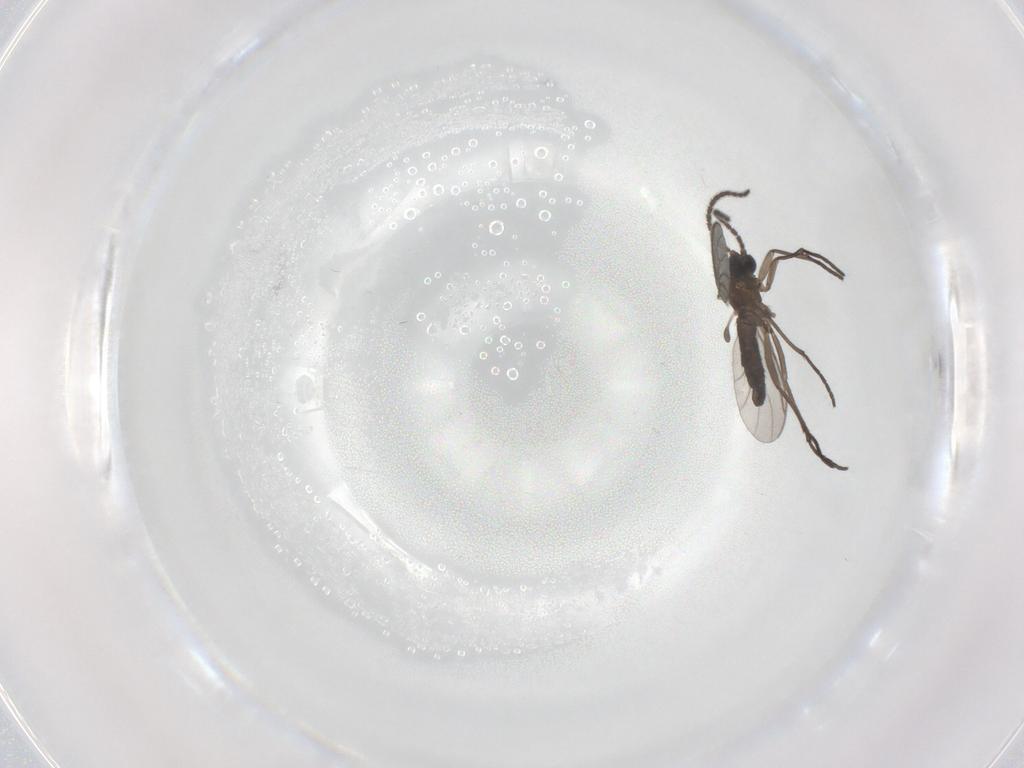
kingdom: Animalia
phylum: Arthropoda
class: Insecta
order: Diptera
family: Sciaridae
